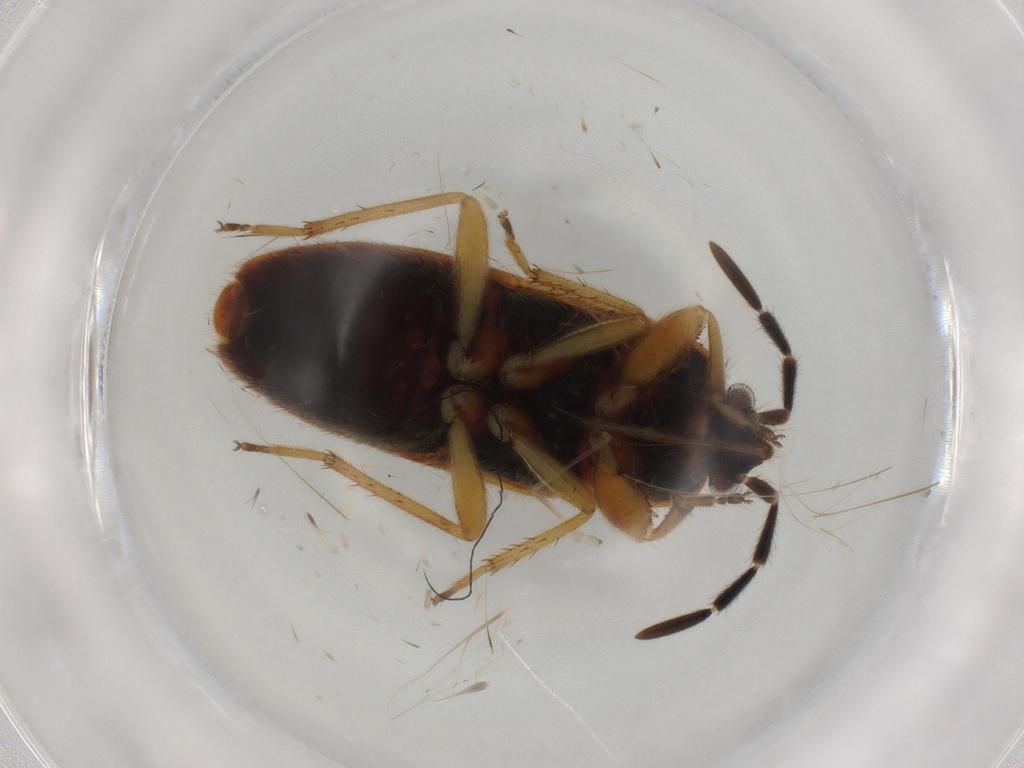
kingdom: Animalia
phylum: Arthropoda
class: Insecta
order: Hemiptera
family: Rhyparochromidae
